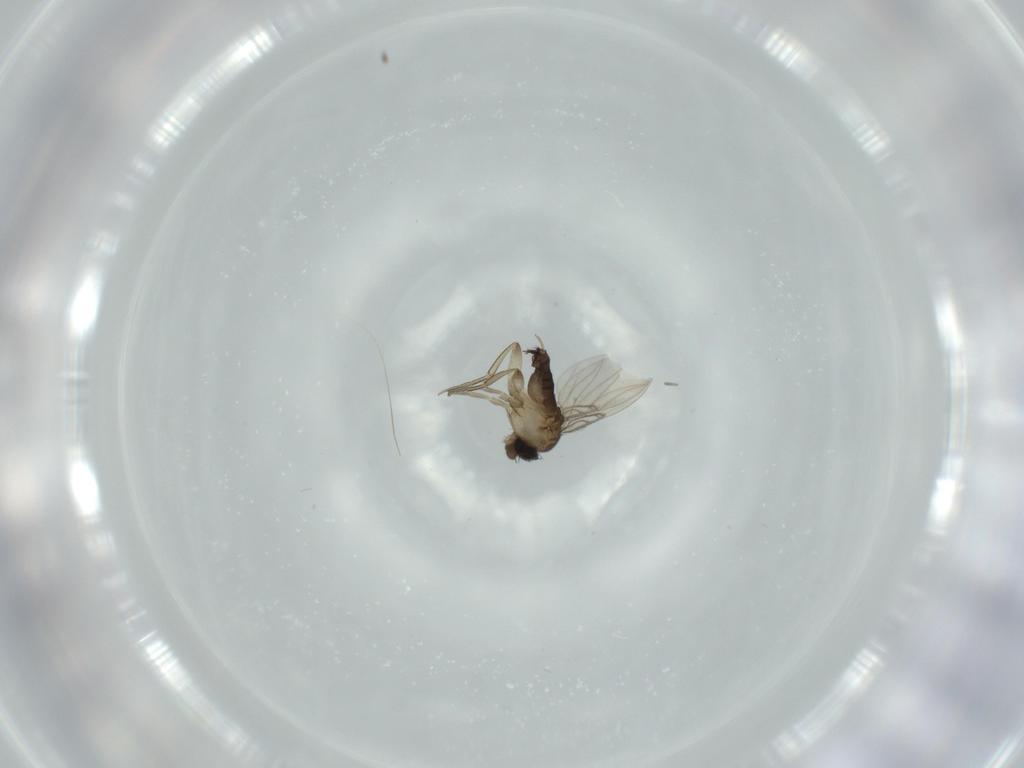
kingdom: Animalia
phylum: Arthropoda
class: Insecta
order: Diptera
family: Phoridae
